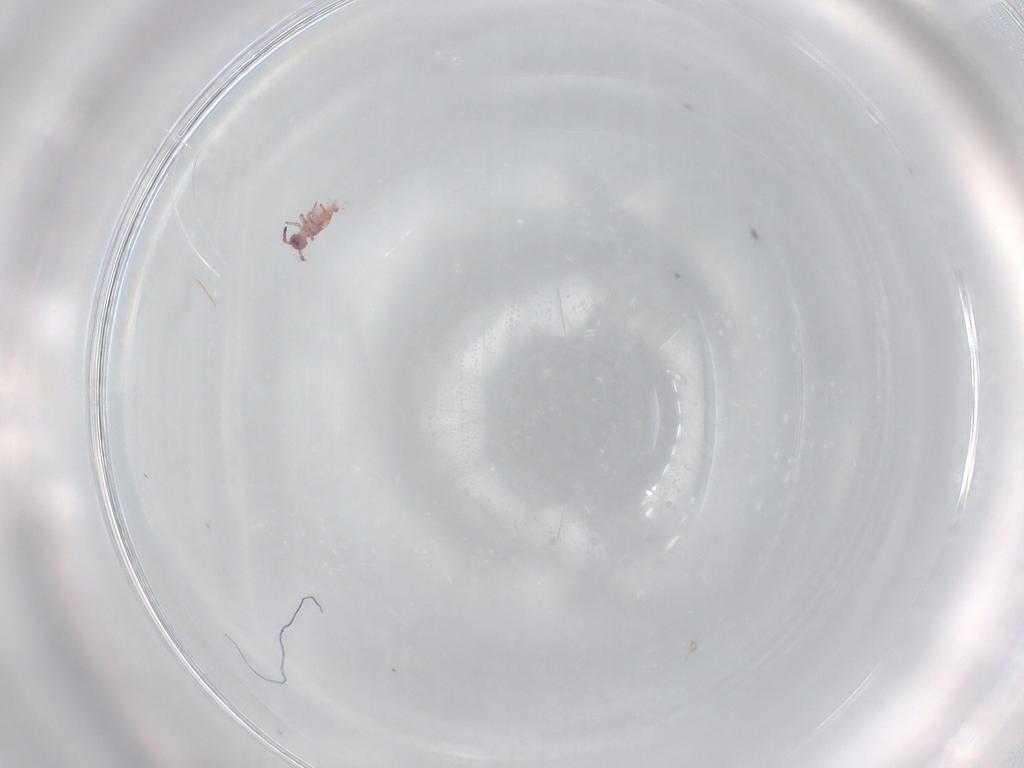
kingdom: Animalia
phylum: Arthropoda
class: Collembola
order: Symphypleona
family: Sminthurididae
